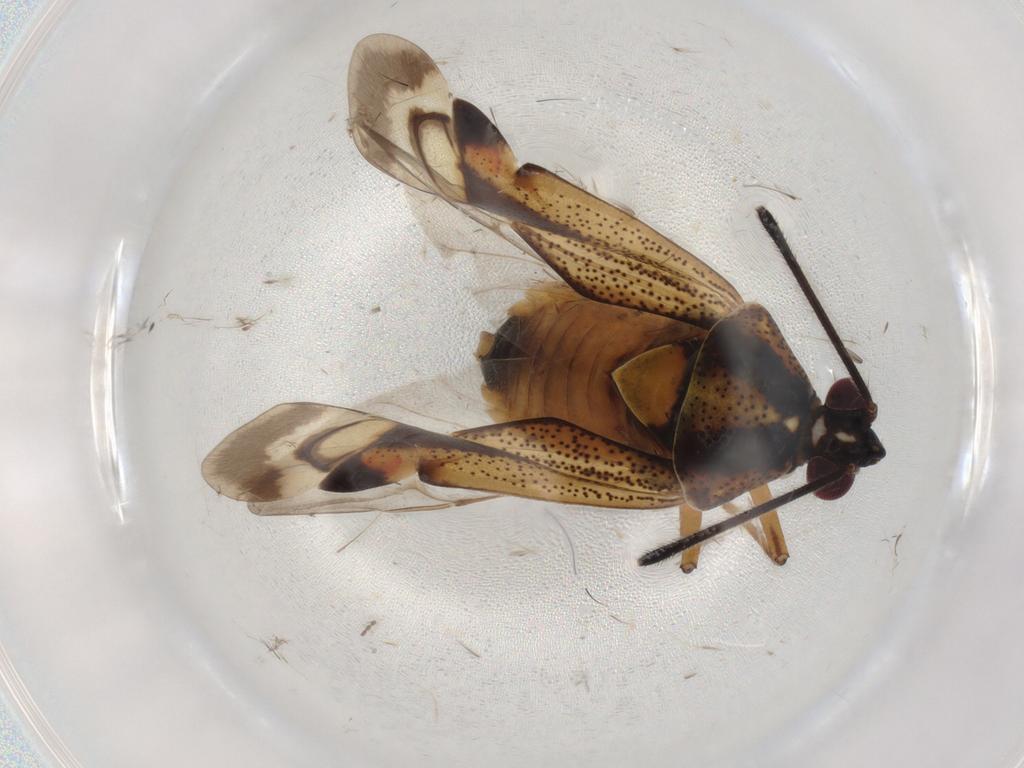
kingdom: Animalia
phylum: Arthropoda
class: Insecta
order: Hemiptera
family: Miridae
